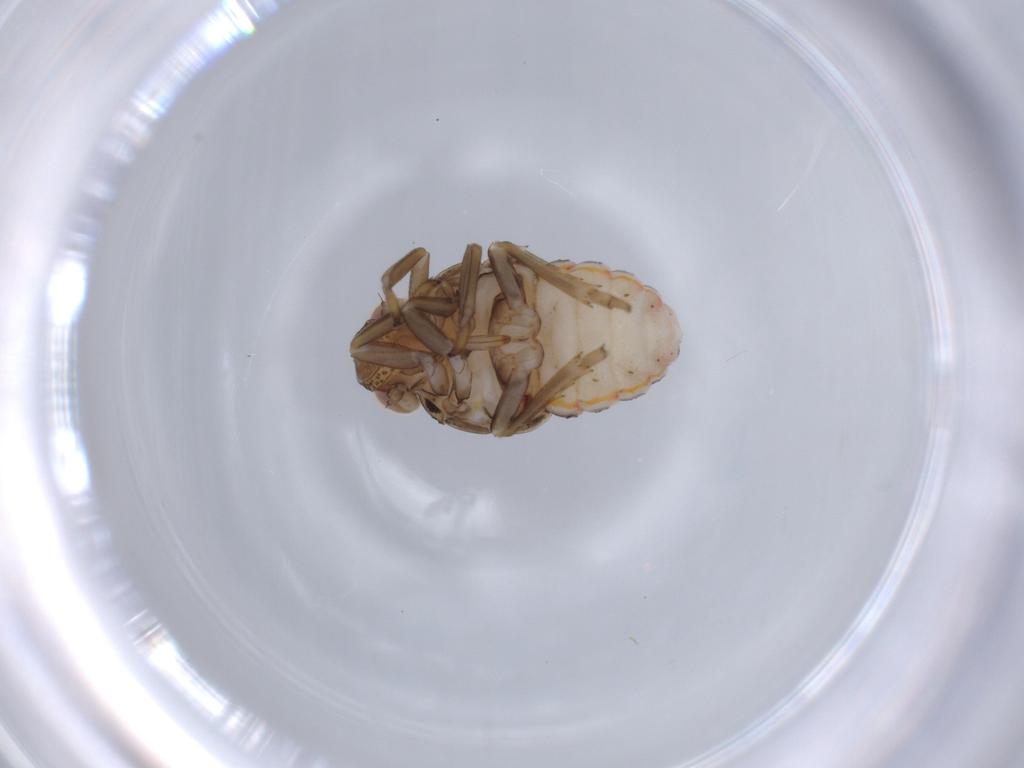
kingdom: Animalia
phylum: Arthropoda
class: Insecta
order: Hemiptera
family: Issidae
